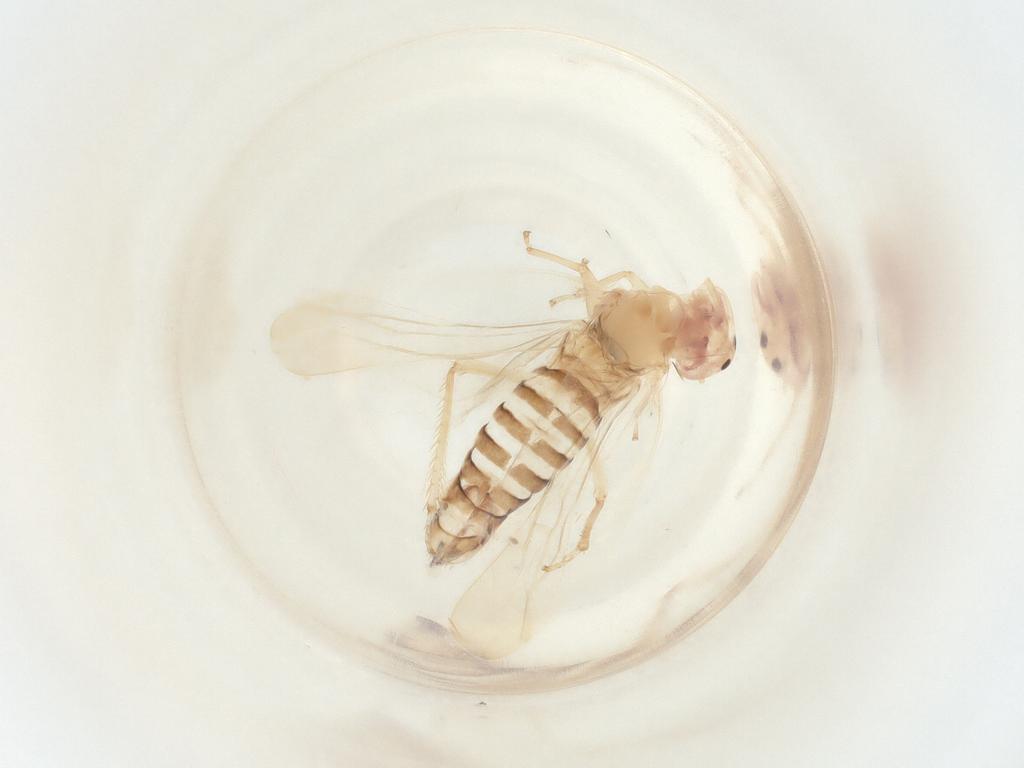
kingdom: Animalia
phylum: Arthropoda
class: Insecta
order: Hemiptera
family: Cicadellidae
